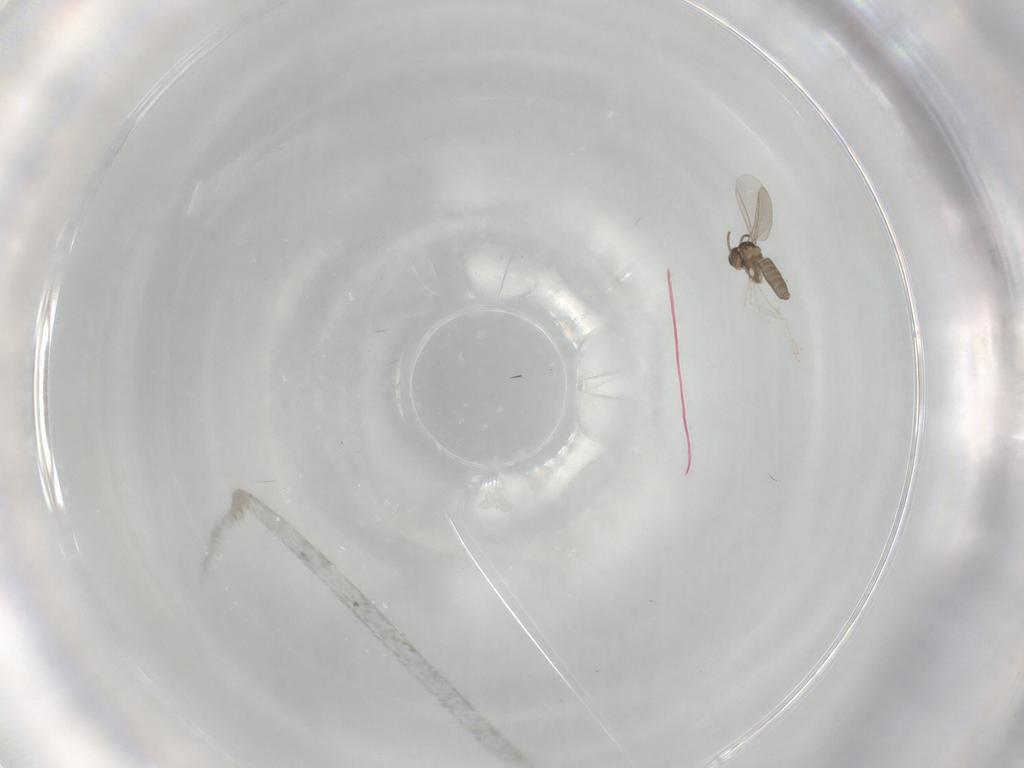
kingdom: Animalia
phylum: Arthropoda
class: Insecta
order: Diptera
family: Cecidomyiidae
